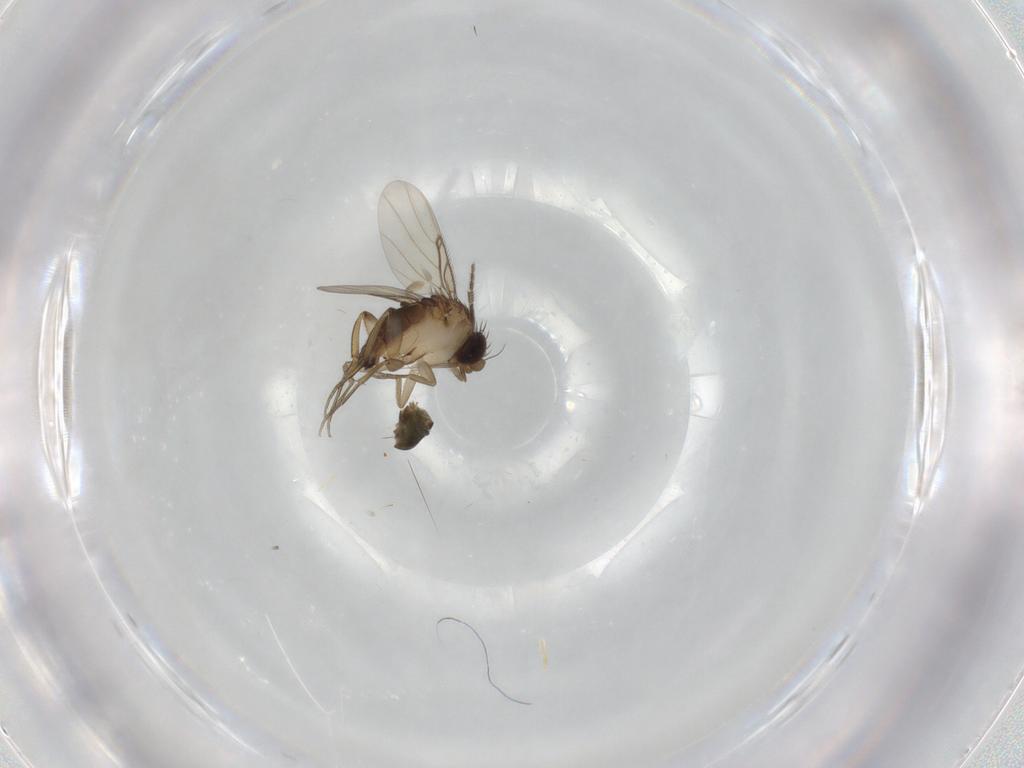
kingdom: Animalia
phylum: Arthropoda
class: Insecta
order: Diptera
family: Phoridae
